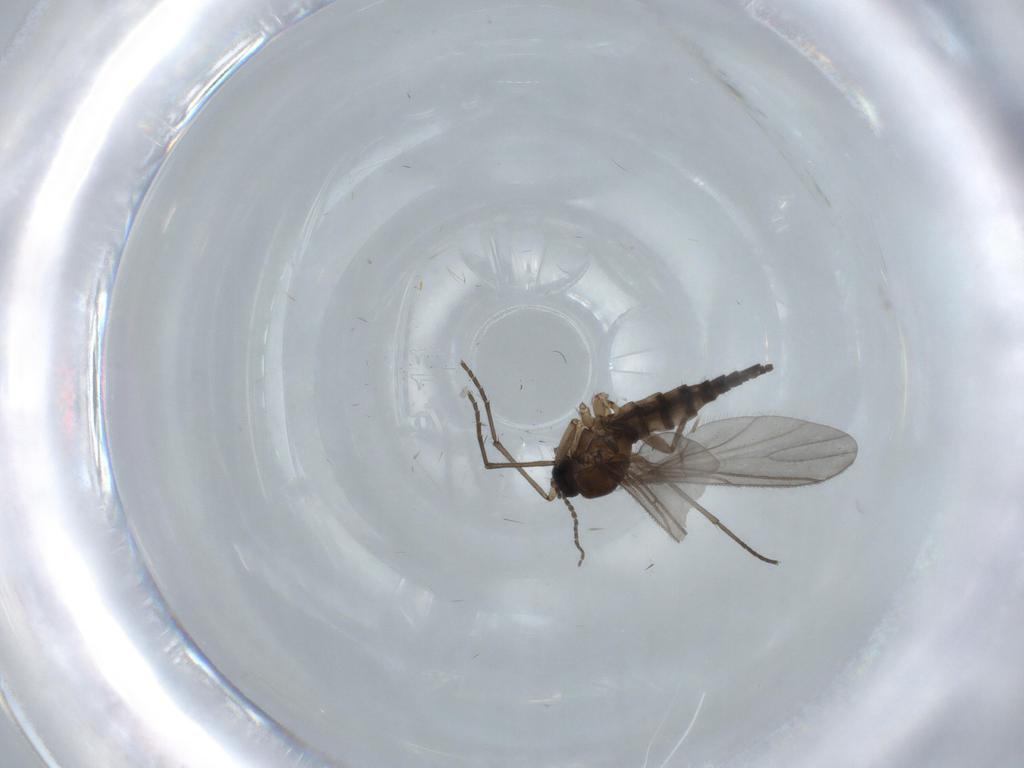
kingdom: Animalia
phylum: Arthropoda
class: Insecta
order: Diptera
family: Sciaridae
